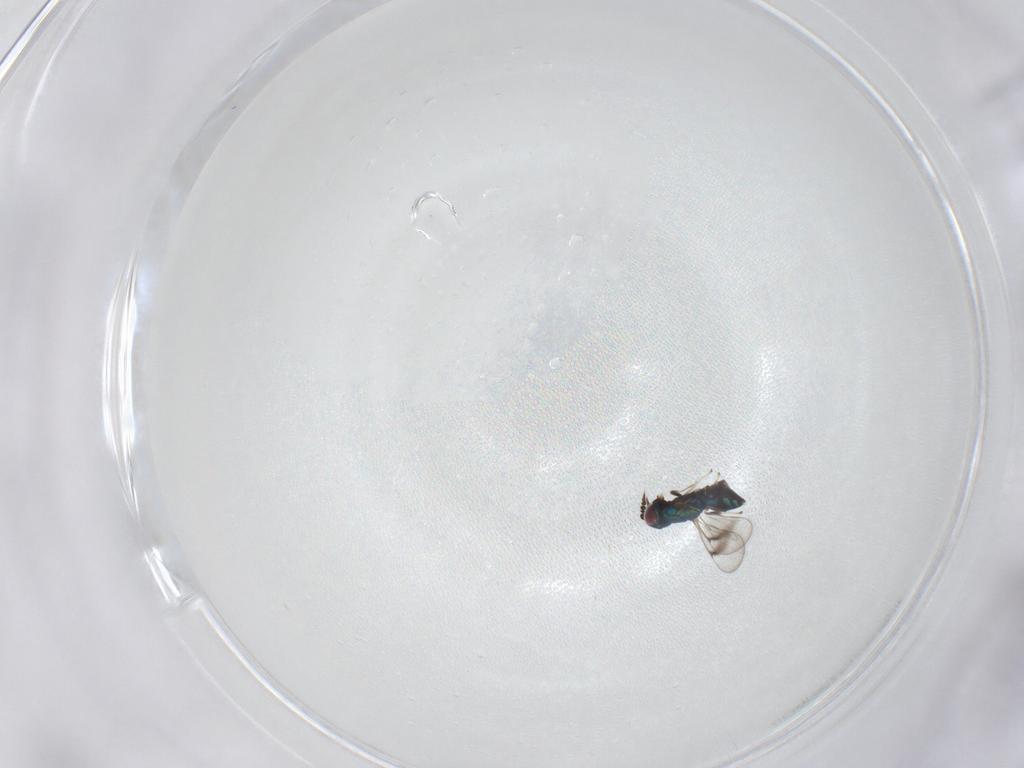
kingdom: Animalia
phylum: Arthropoda
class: Insecta
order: Hymenoptera
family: Eulophidae
